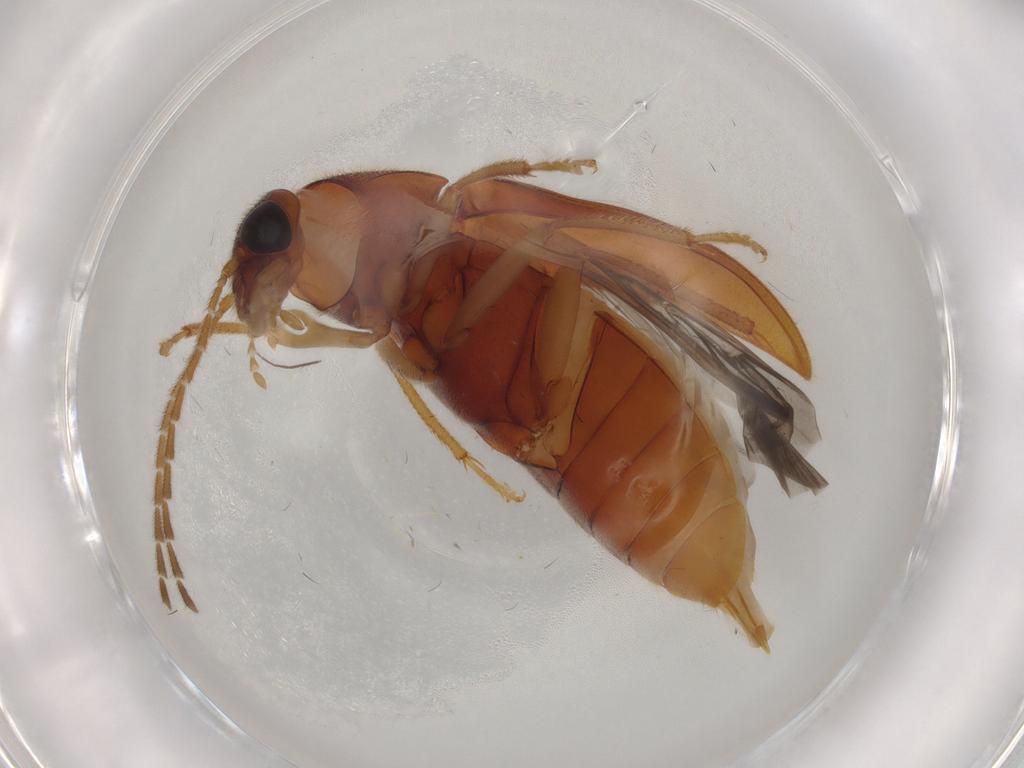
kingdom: Animalia
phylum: Arthropoda
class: Insecta
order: Coleoptera
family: Ptilodactylidae
